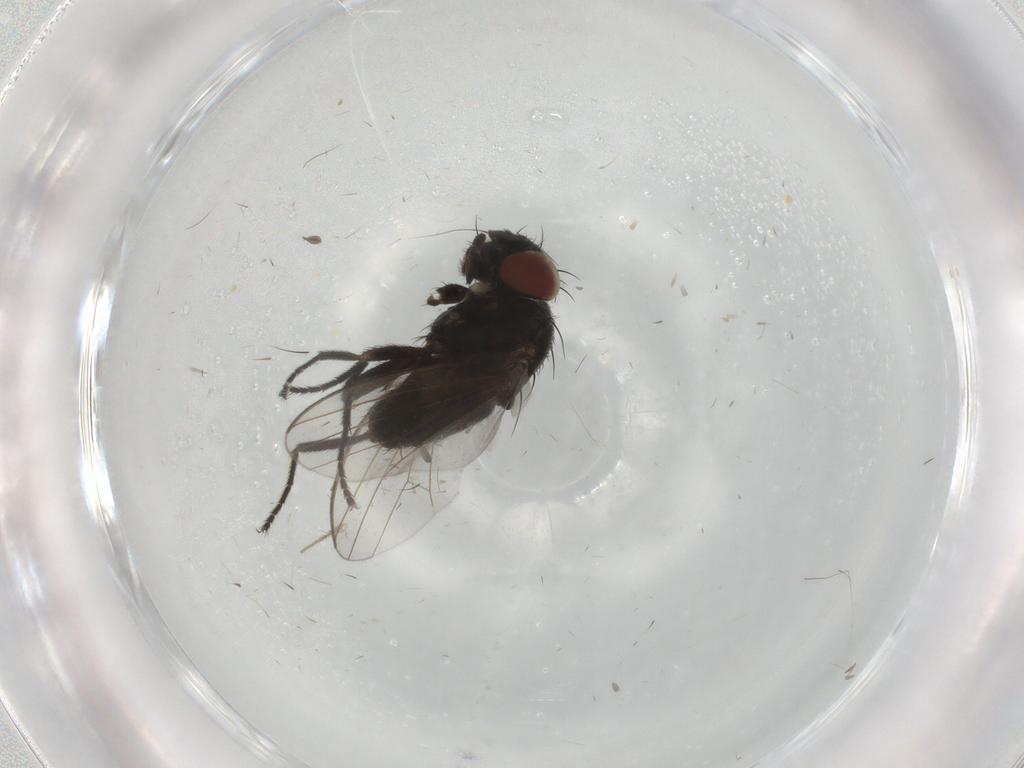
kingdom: Animalia
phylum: Arthropoda
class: Insecta
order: Diptera
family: Milichiidae
